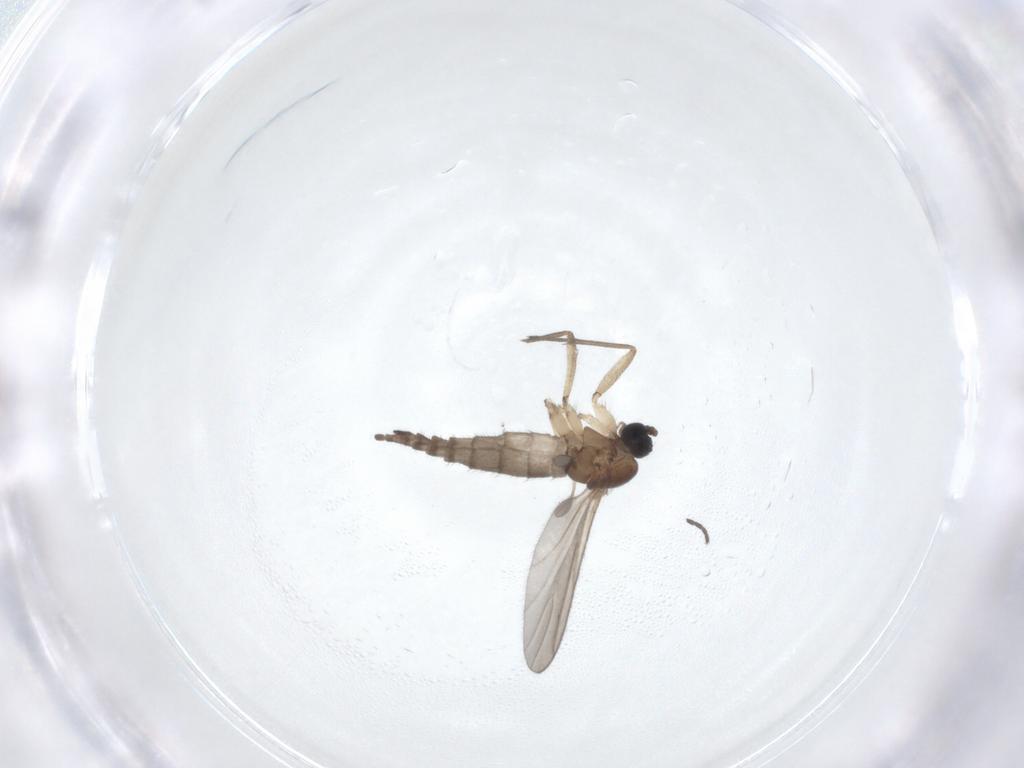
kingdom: Animalia
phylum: Arthropoda
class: Insecta
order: Diptera
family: Sciaridae
